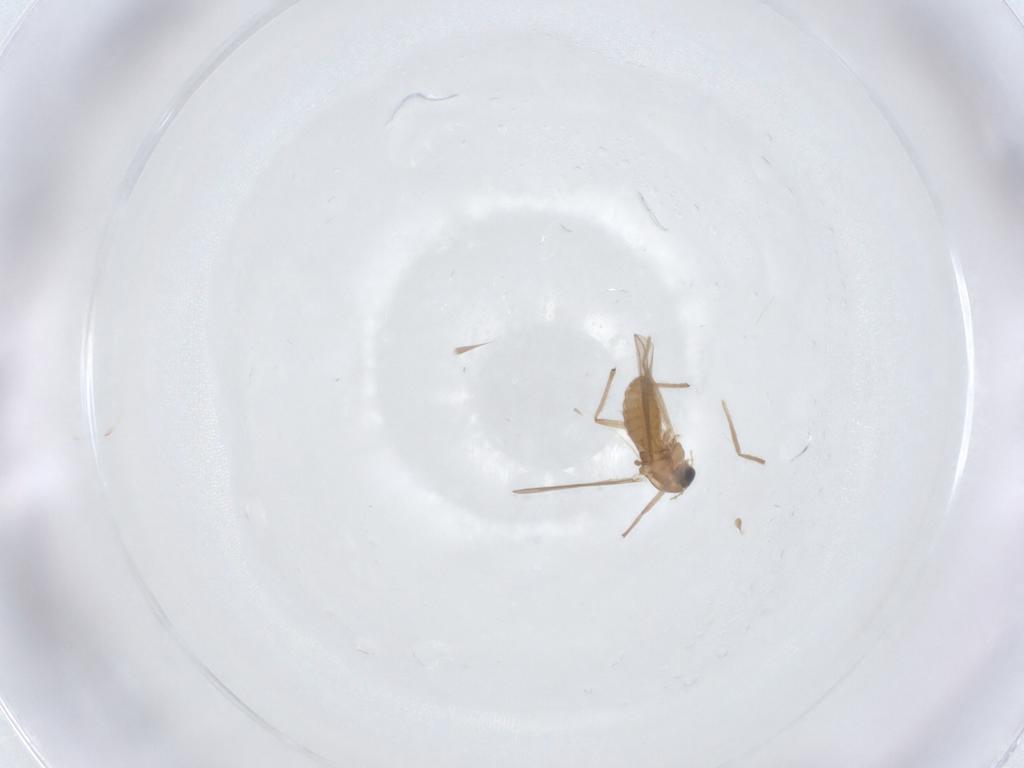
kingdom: Animalia
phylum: Arthropoda
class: Insecta
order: Diptera
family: Chironomidae
